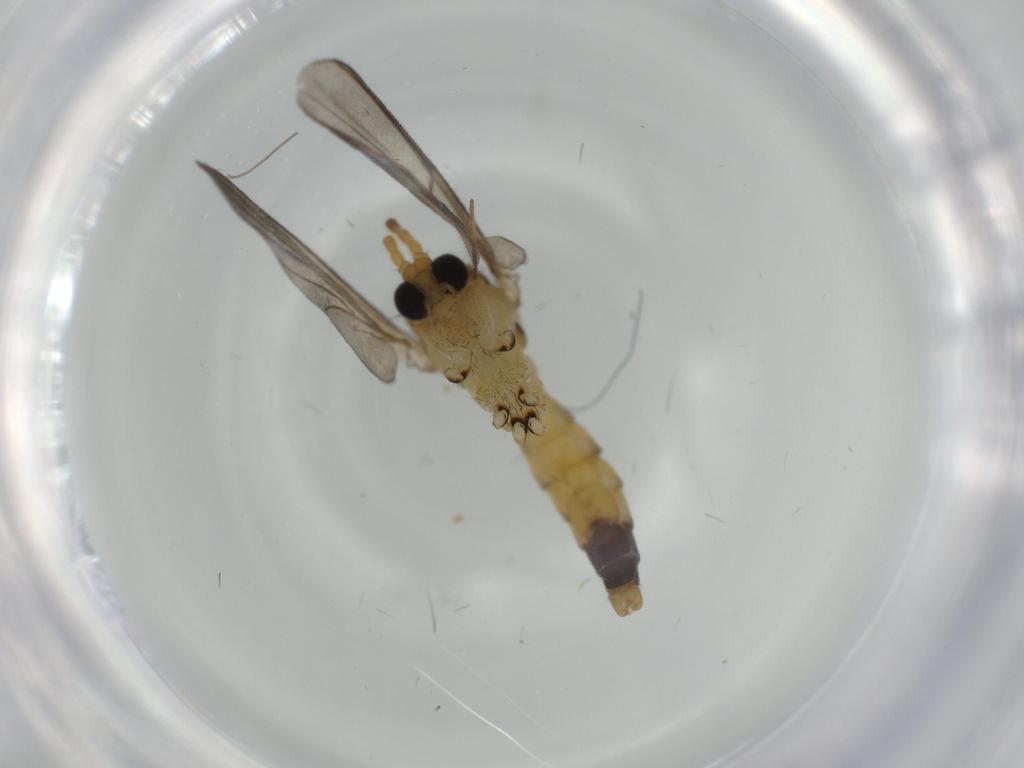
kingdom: Animalia
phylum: Arthropoda
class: Insecta
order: Diptera
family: Mycetophilidae
